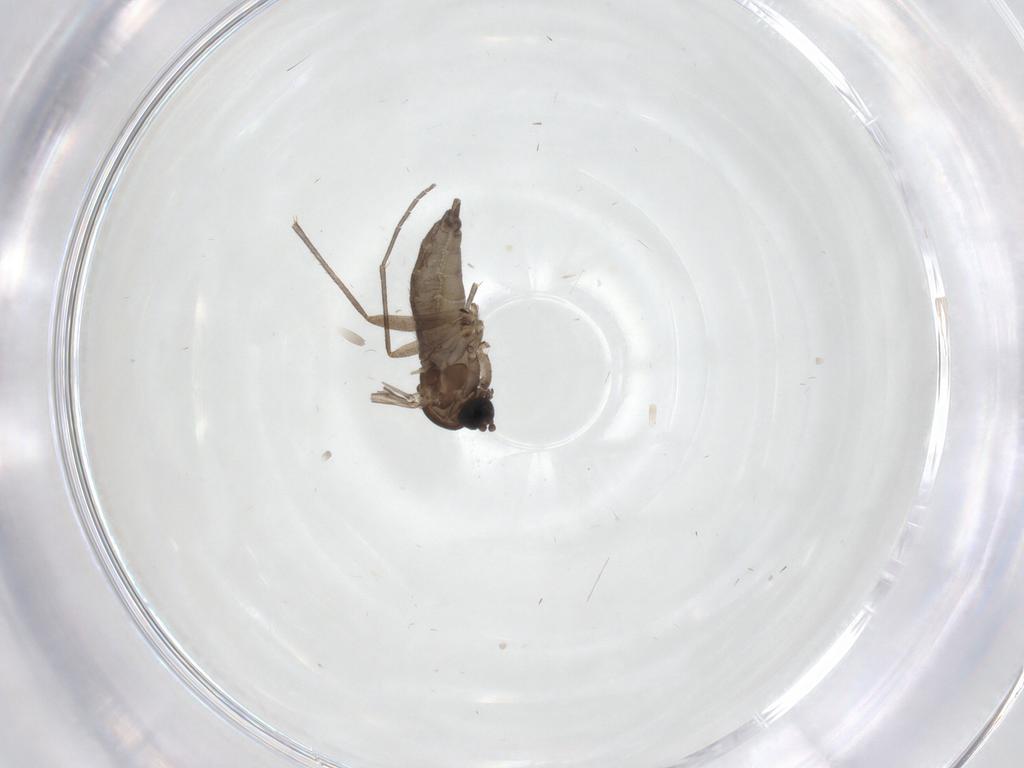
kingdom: Animalia
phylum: Arthropoda
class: Insecta
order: Diptera
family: Sciaridae
